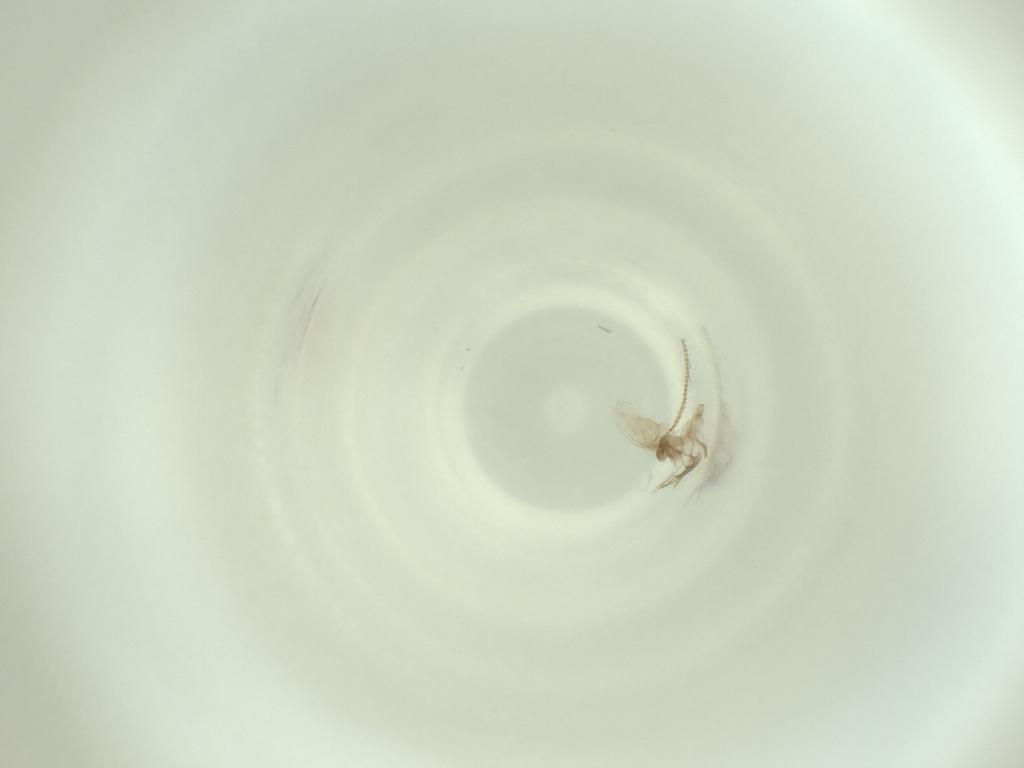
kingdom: Animalia
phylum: Arthropoda
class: Insecta
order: Diptera
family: Cecidomyiidae
